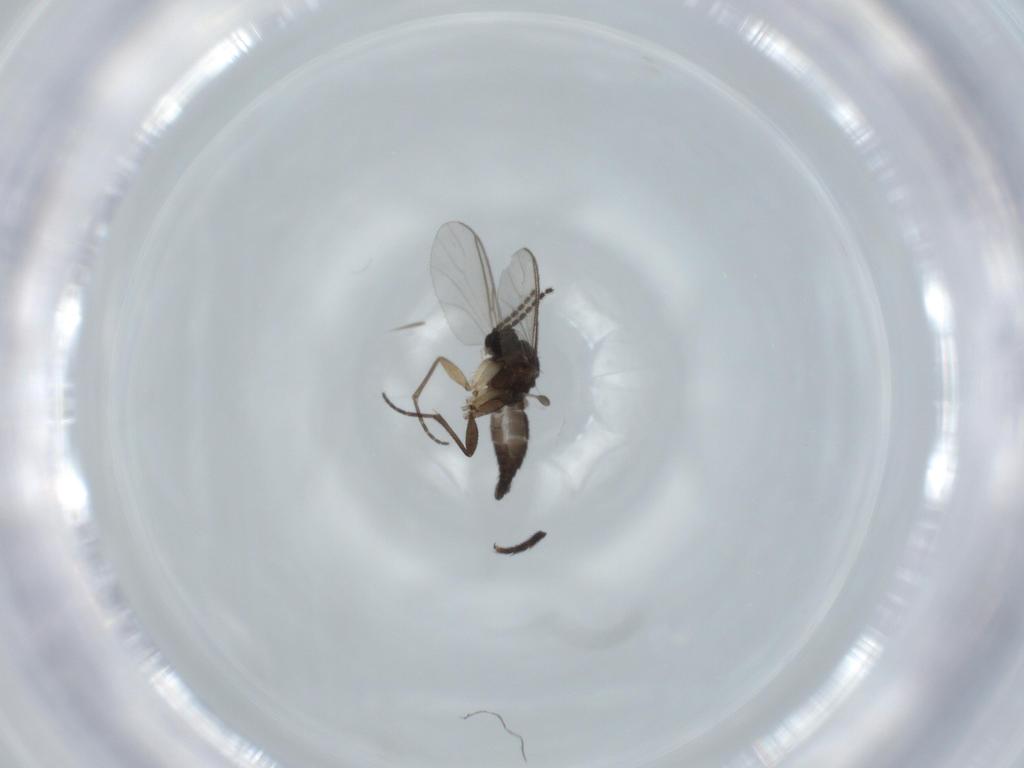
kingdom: Animalia
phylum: Arthropoda
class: Insecta
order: Diptera
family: Sciaridae
